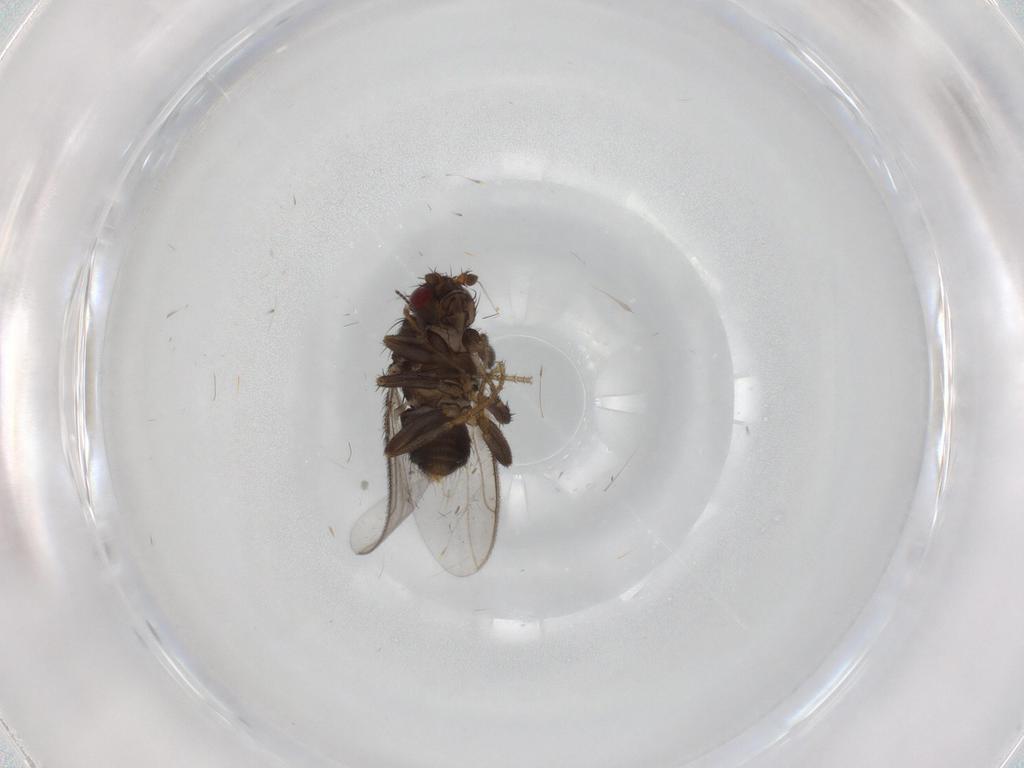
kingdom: Animalia
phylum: Arthropoda
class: Insecta
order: Diptera
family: Sphaeroceridae
